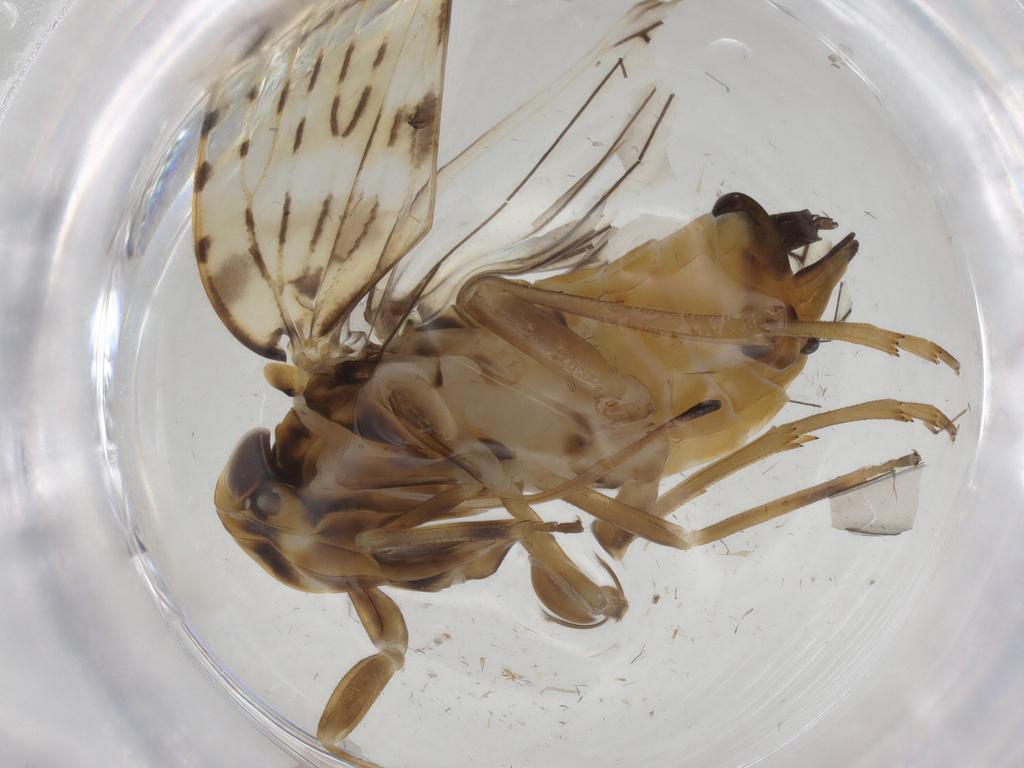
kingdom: Animalia
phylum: Arthropoda
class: Insecta
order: Hemiptera
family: Cixiidae
